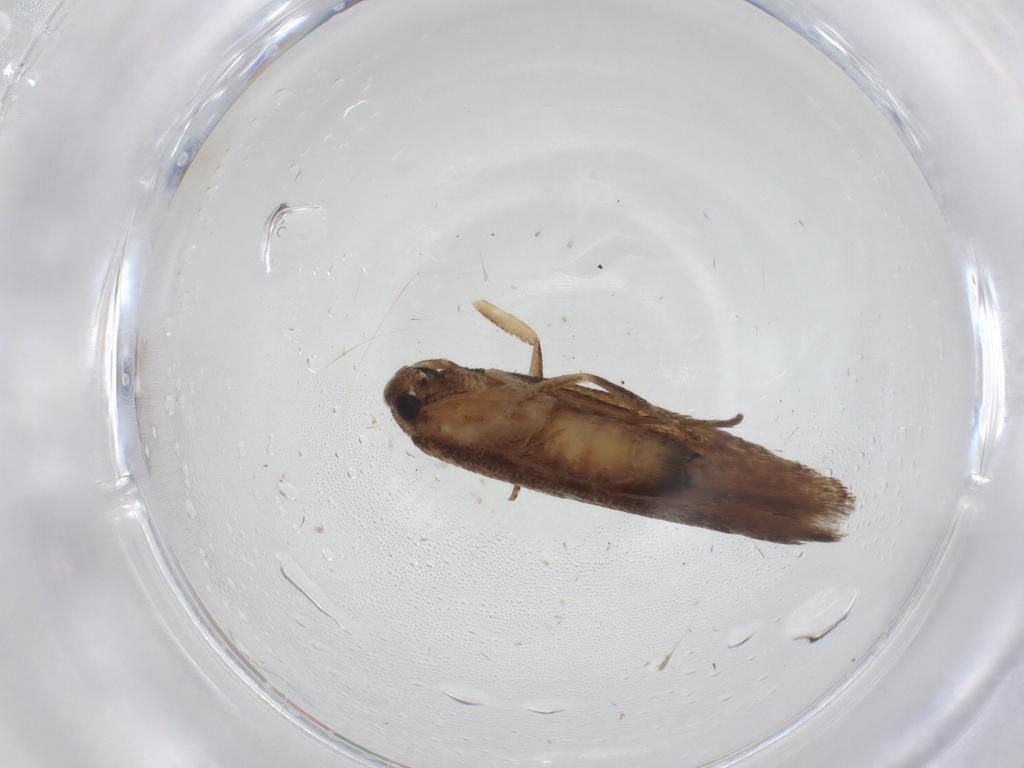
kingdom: Animalia
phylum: Arthropoda
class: Insecta
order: Lepidoptera
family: Cosmopterigidae
